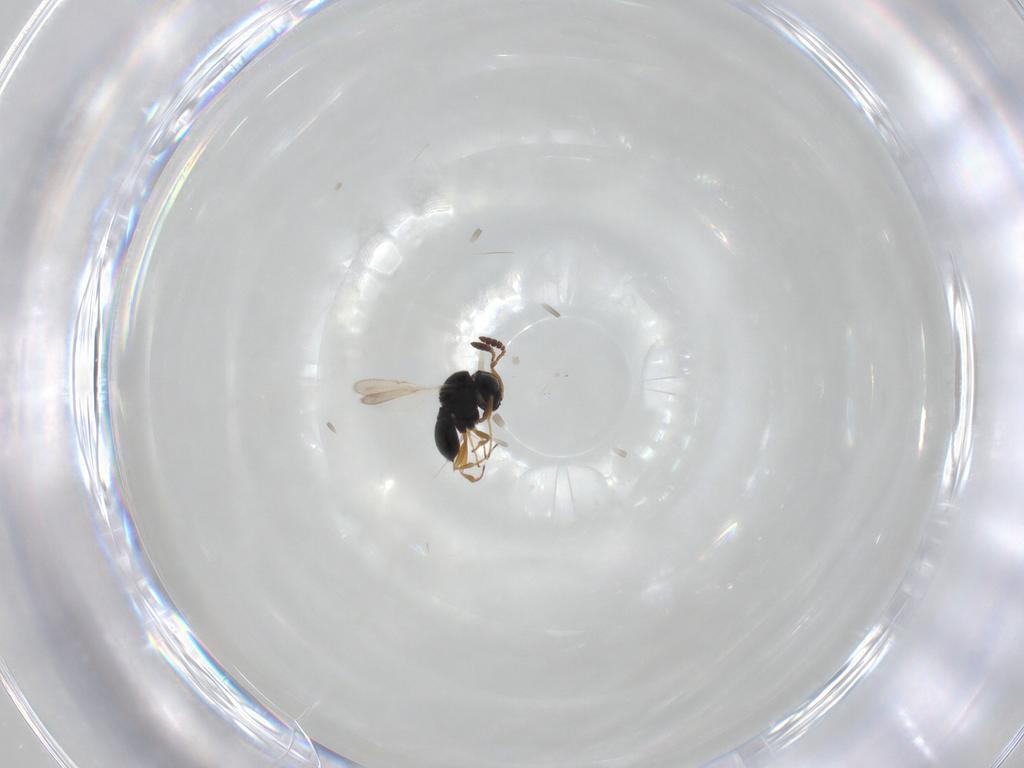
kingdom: Animalia
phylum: Arthropoda
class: Insecta
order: Hymenoptera
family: Scelionidae
